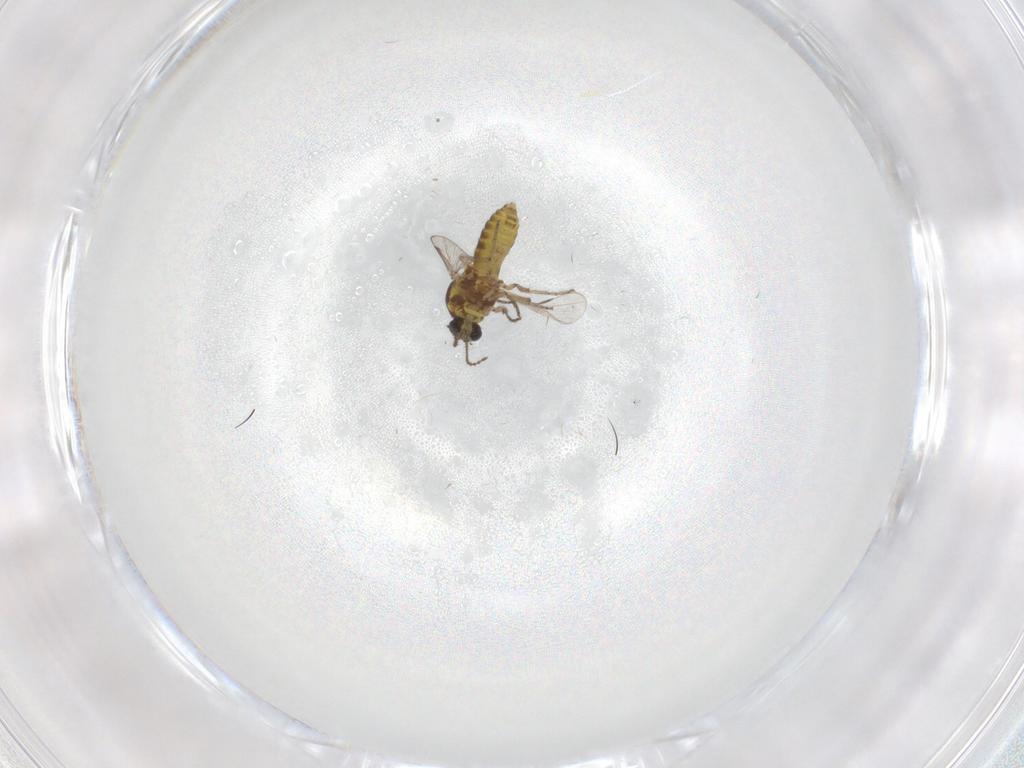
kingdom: Animalia
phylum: Arthropoda
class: Insecta
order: Diptera
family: Ceratopogonidae
